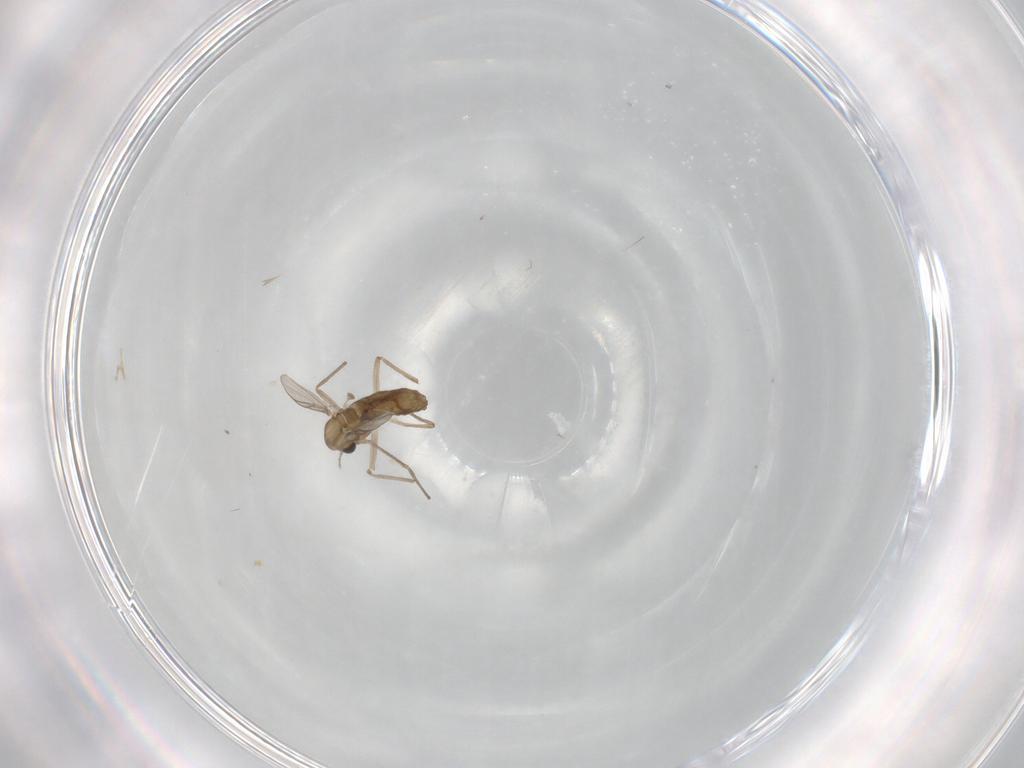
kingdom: Animalia
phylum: Arthropoda
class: Insecta
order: Diptera
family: Chironomidae
